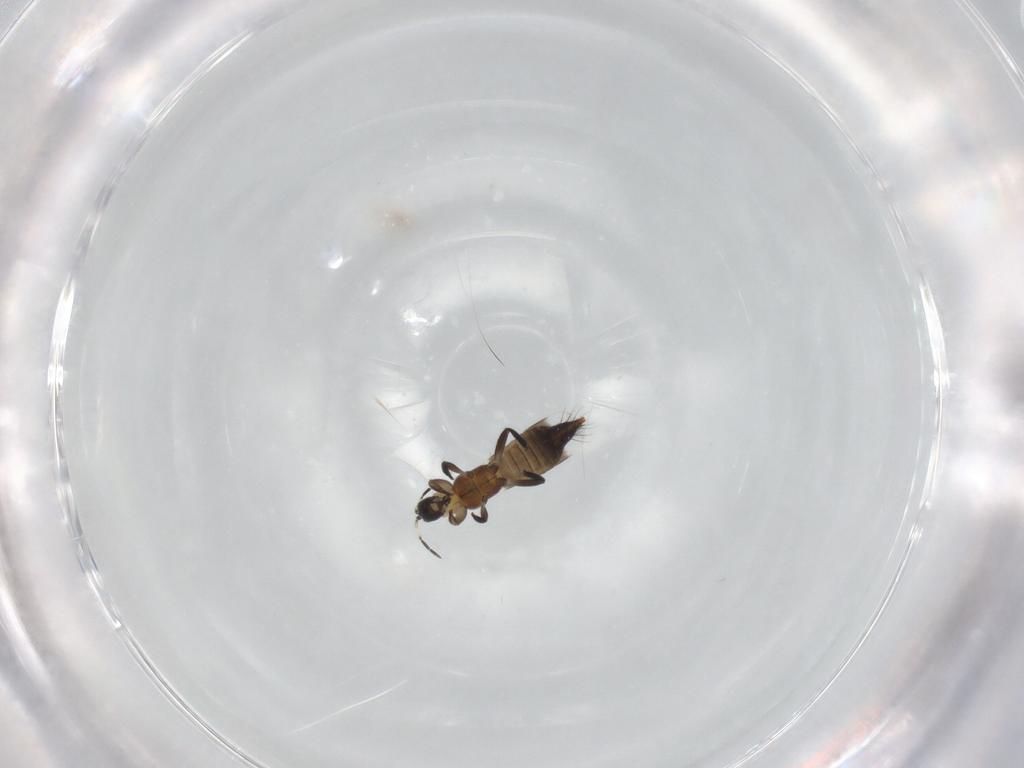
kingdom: Animalia
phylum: Arthropoda
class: Insecta
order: Thysanoptera
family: Aeolothripidae
